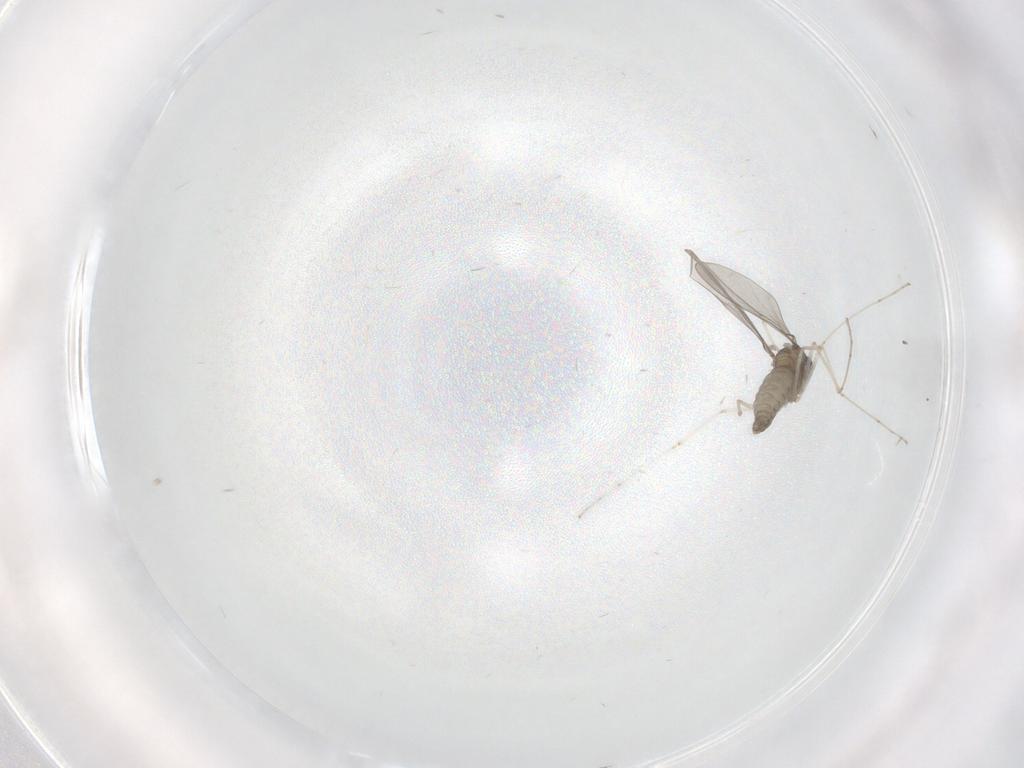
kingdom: Animalia
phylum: Arthropoda
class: Insecta
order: Diptera
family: Cecidomyiidae
